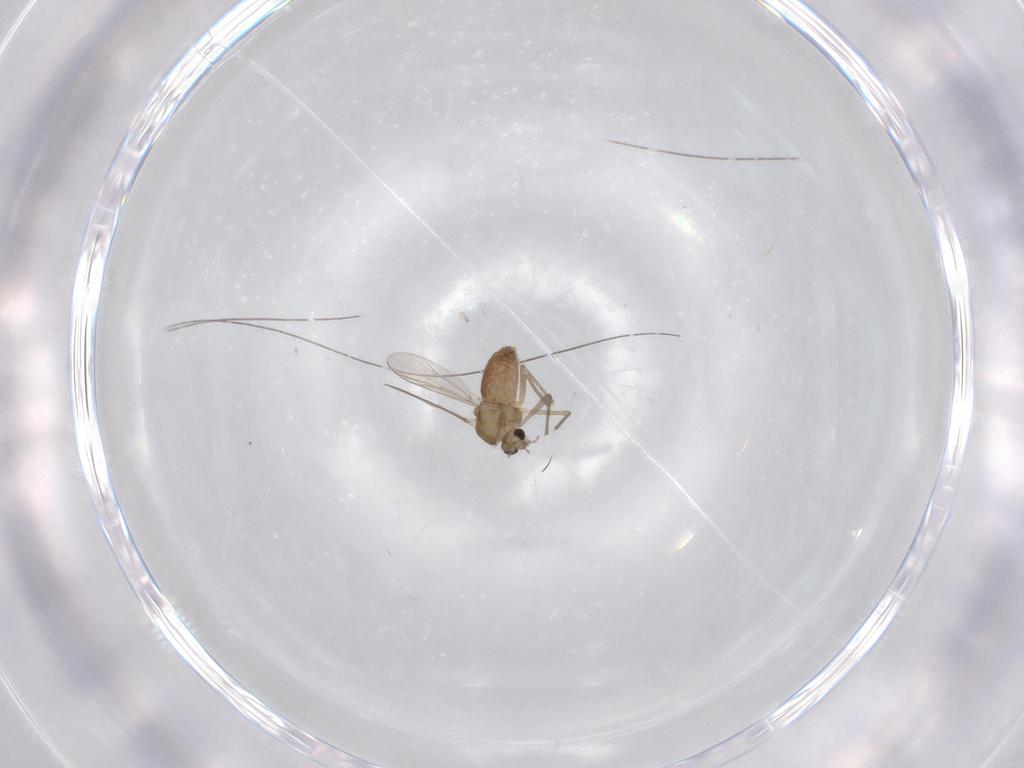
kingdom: Animalia
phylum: Arthropoda
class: Insecta
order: Diptera
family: Chironomidae
